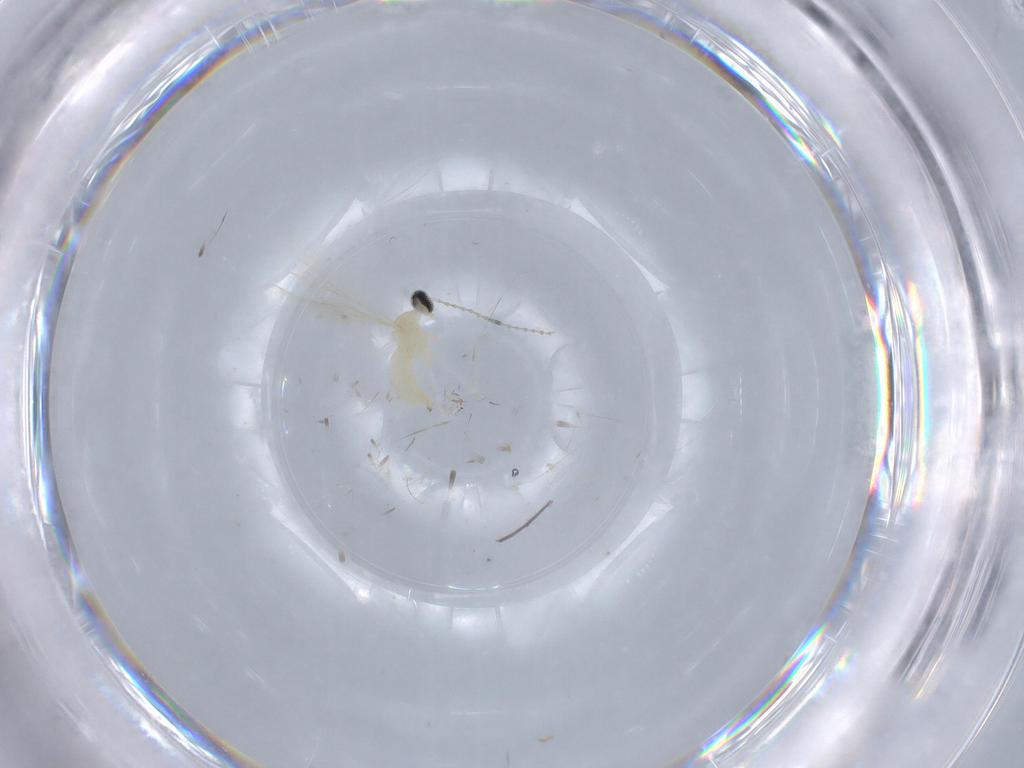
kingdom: Animalia
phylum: Arthropoda
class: Insecta
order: Diptera
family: Cecidomyiidae
